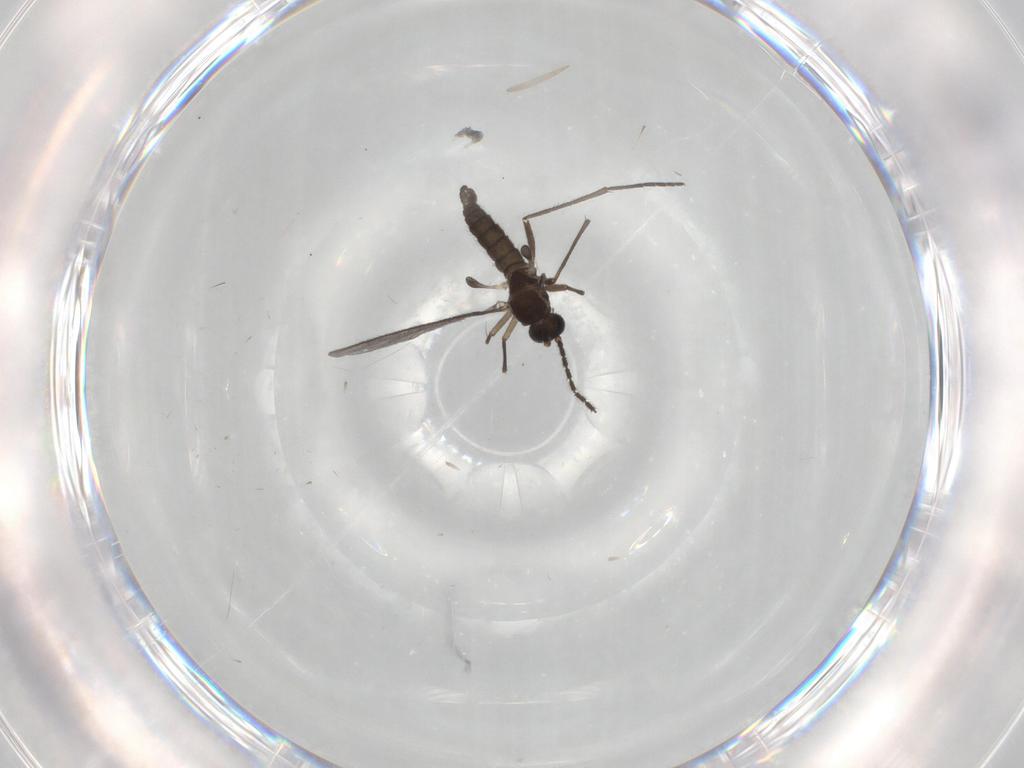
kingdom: Animalia
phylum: Arthropoda
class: Insecta
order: Diptera
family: Sciaridae
